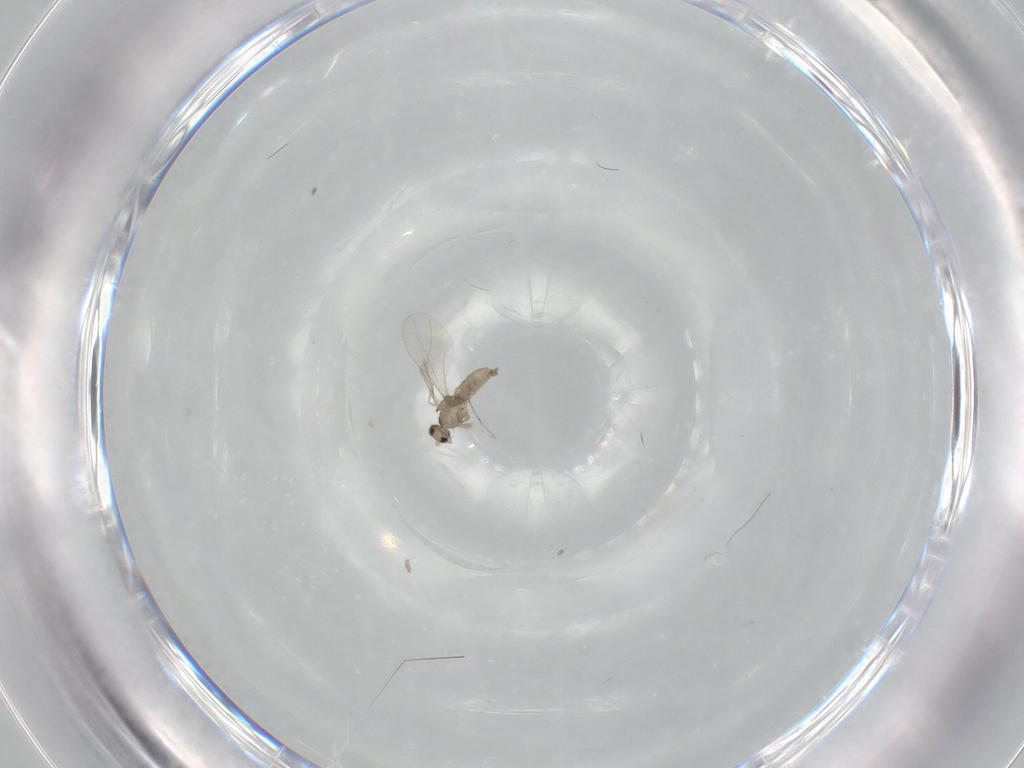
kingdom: Animalia
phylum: Arthropoda
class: Insecta
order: Diptera
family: Cecidomyiidae
